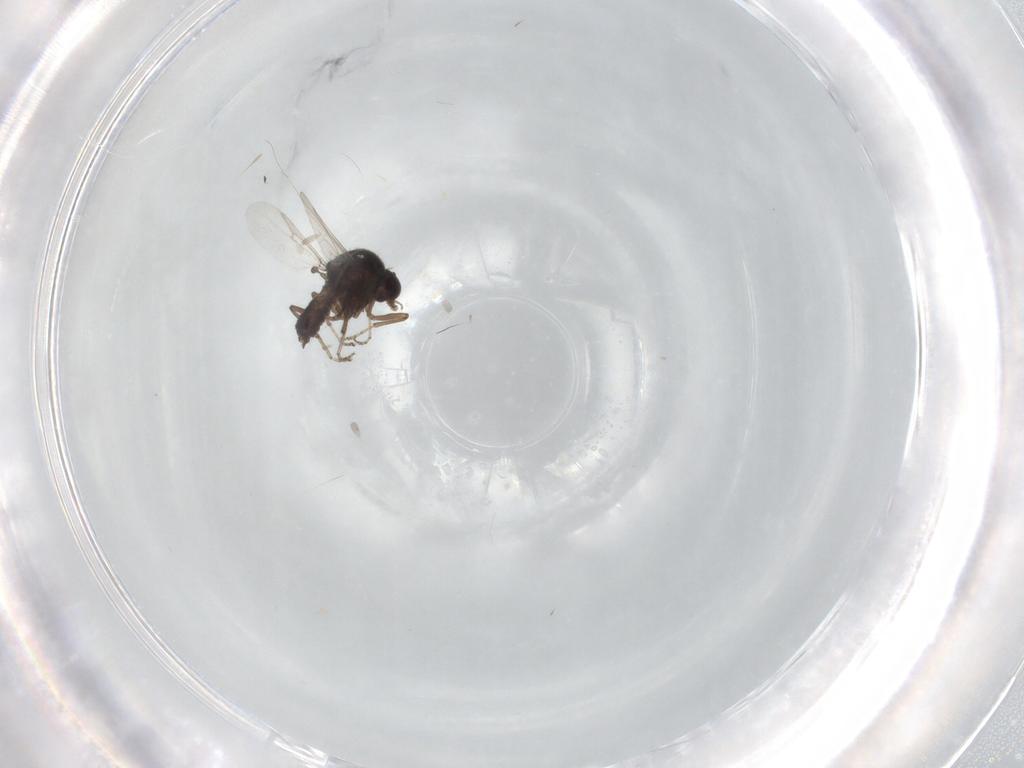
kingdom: Animalia
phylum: Arthropoda
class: Insecta
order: Diptera
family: Ceratopogonidae
